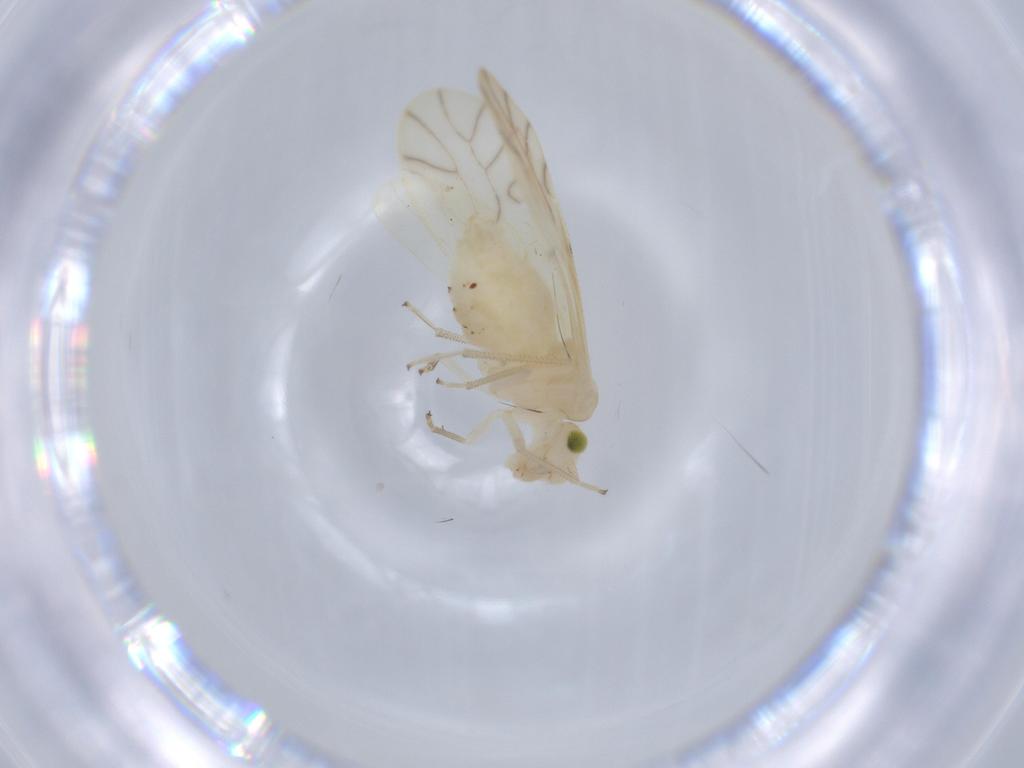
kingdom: Animalia
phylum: Arthropoda
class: Insecta
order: Psocodea
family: Caeciliusidae
